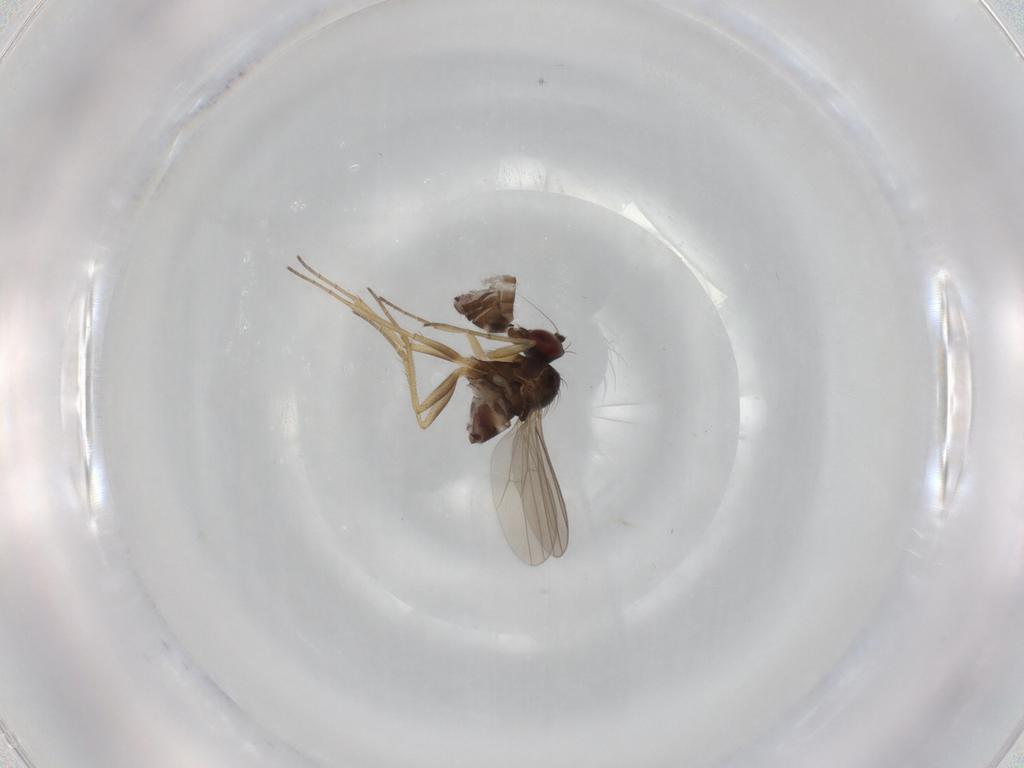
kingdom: Animalia
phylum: Arthropoda
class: Insecta
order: Diptera
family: Dolichopodidae
